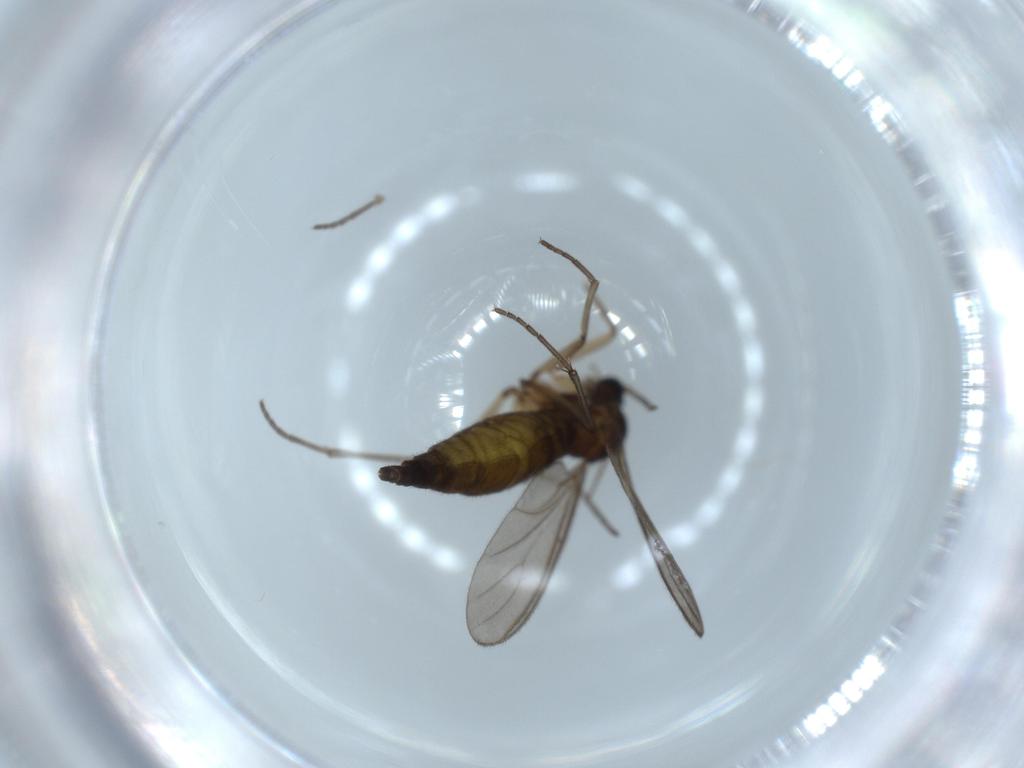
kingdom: Animalia
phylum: Arthropoda
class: Insecta
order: Diptera
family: Sciaridae
